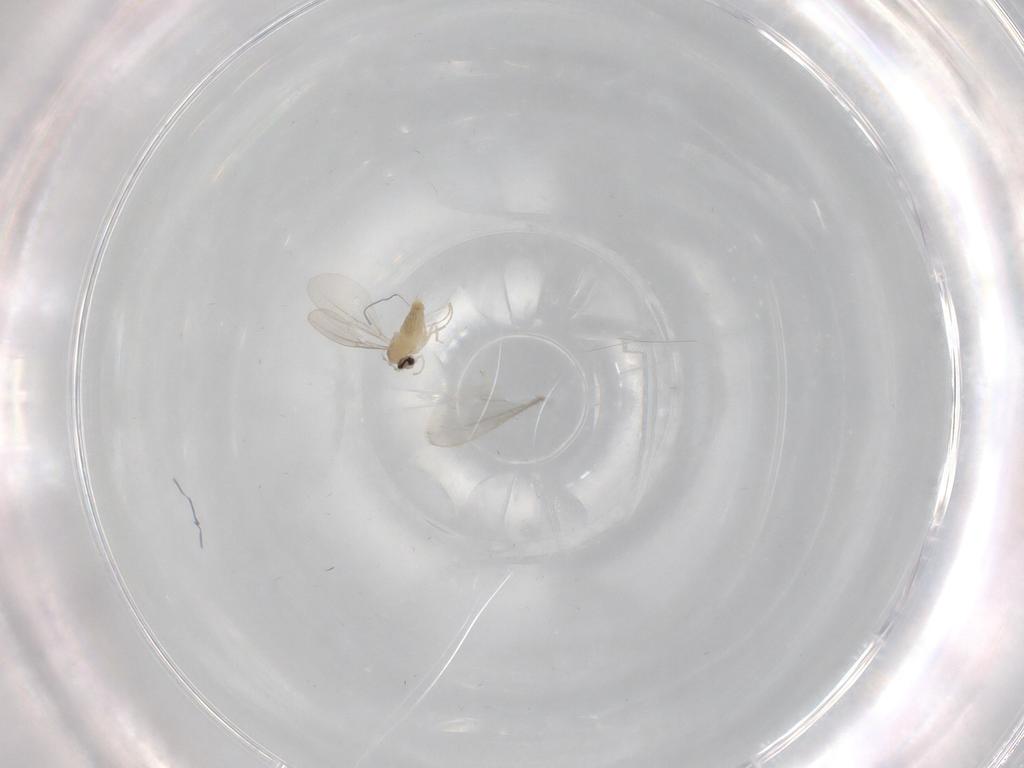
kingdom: Animalia
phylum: Arthropoda
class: Insecta
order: Diptera
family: Cecidomyiidae
